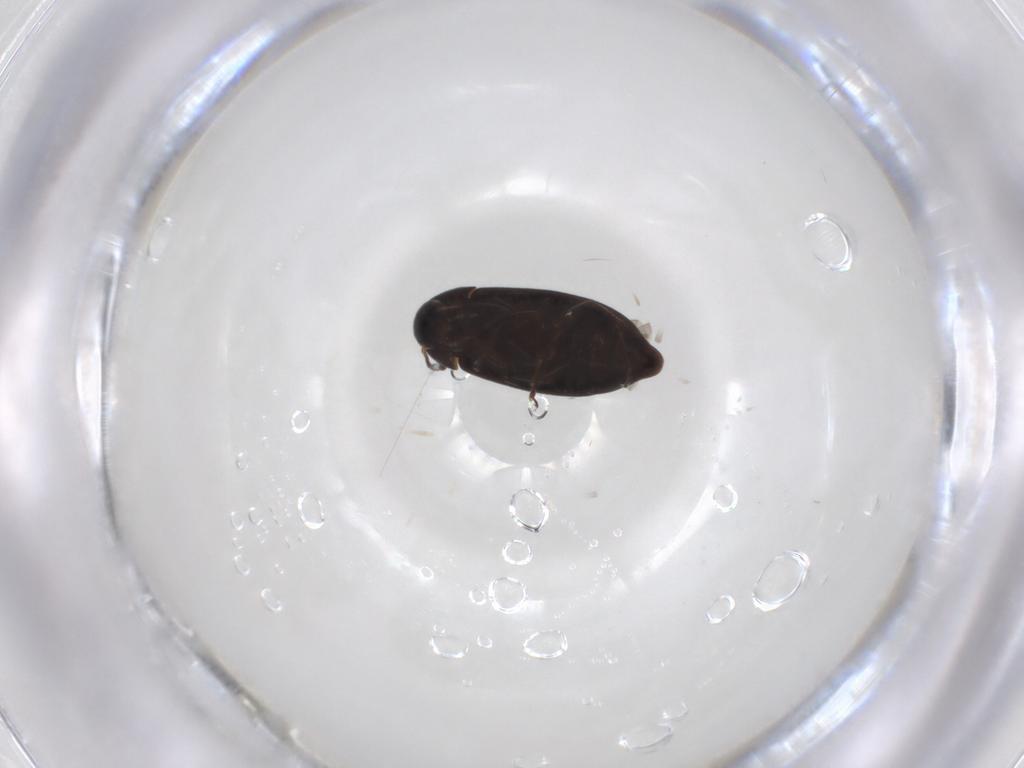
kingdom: Animalia
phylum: Arthropoda
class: Insecta
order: Coleoptera
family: Scraptiidae
